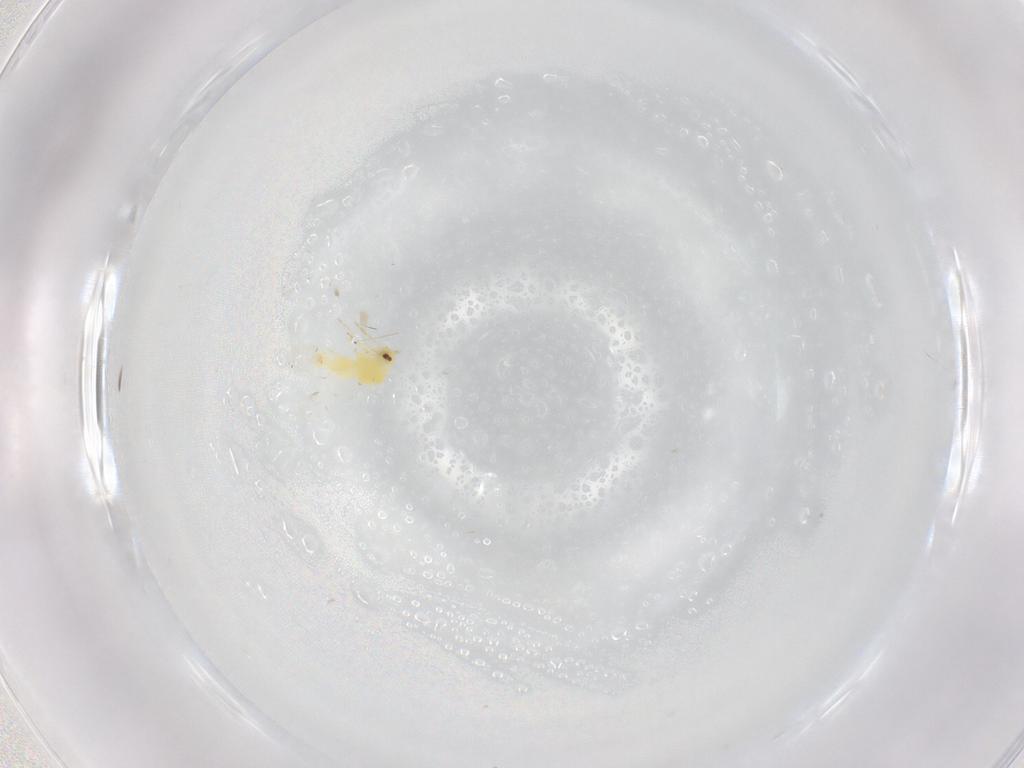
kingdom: Animalia
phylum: Arthropoda
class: Insecta
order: Hemiptera
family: Aleyrodidae
